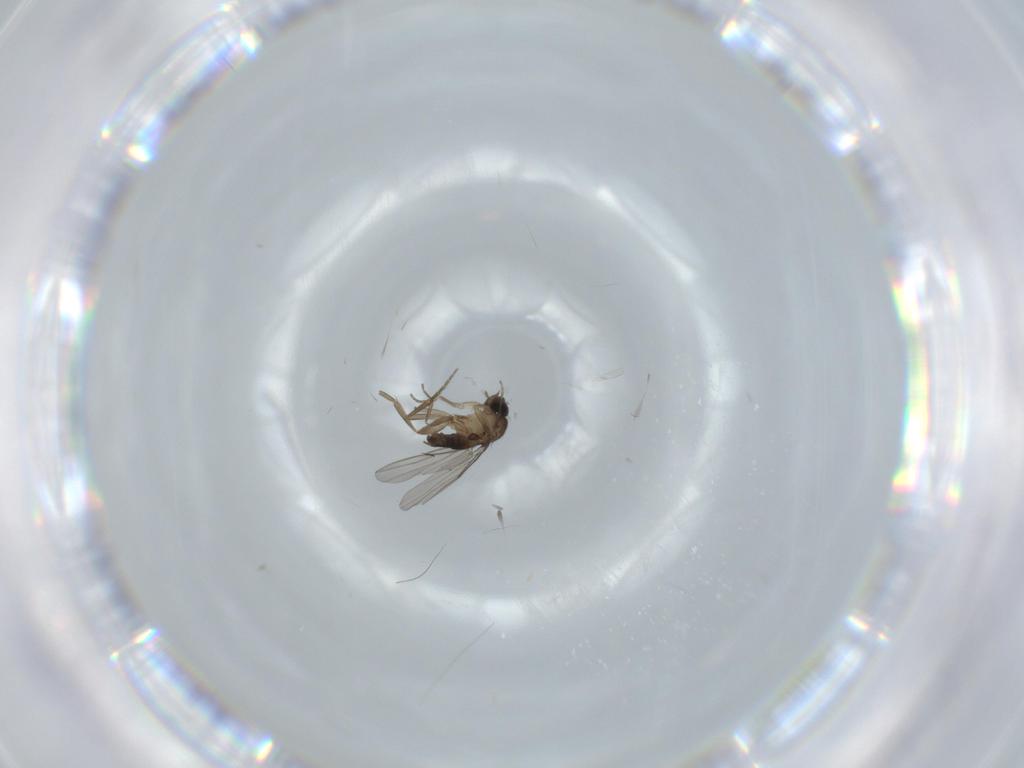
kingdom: Animalia
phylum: Arthropoda
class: Insecta
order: Diptera
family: Phoridae
